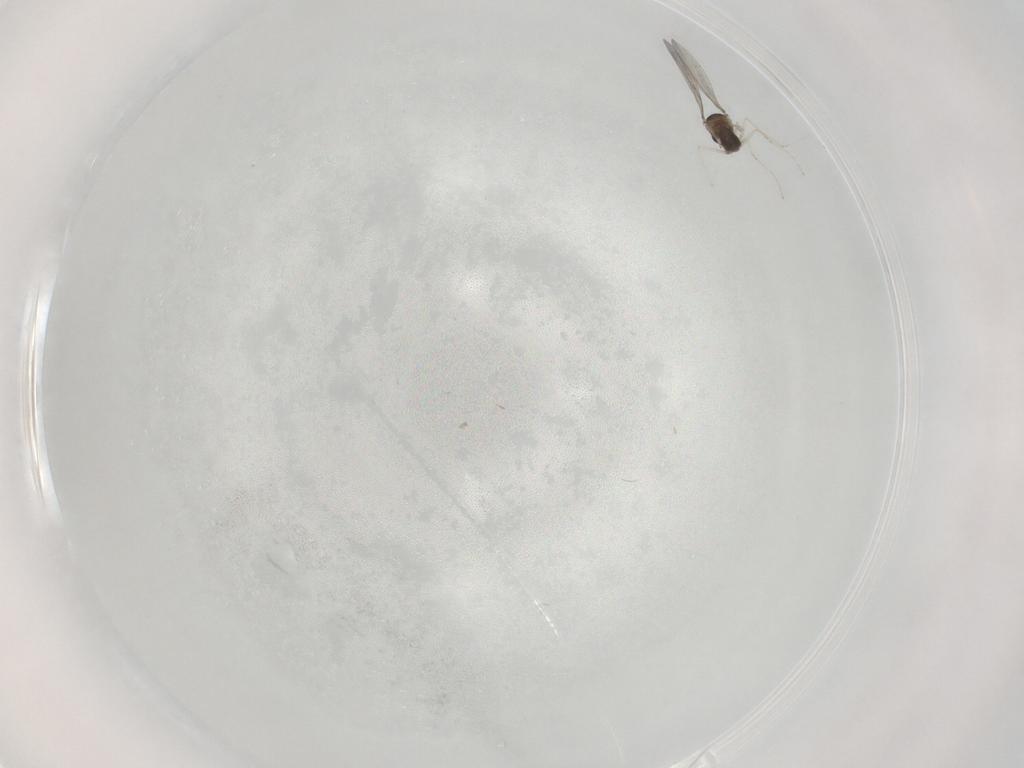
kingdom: Animalia
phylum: Arthropoda
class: Insecta
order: Diptera
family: Cecidomyiidae
